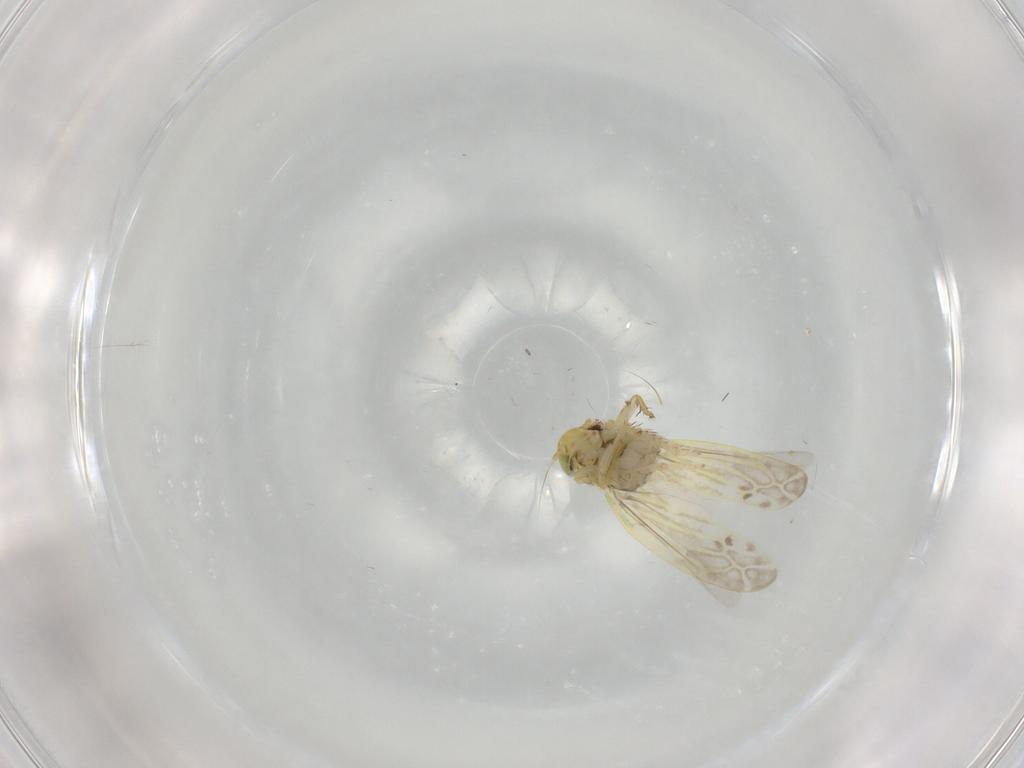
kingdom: Animalia
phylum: Arthropoda
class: Insecta
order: Hemiptera
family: Cicadellidae
